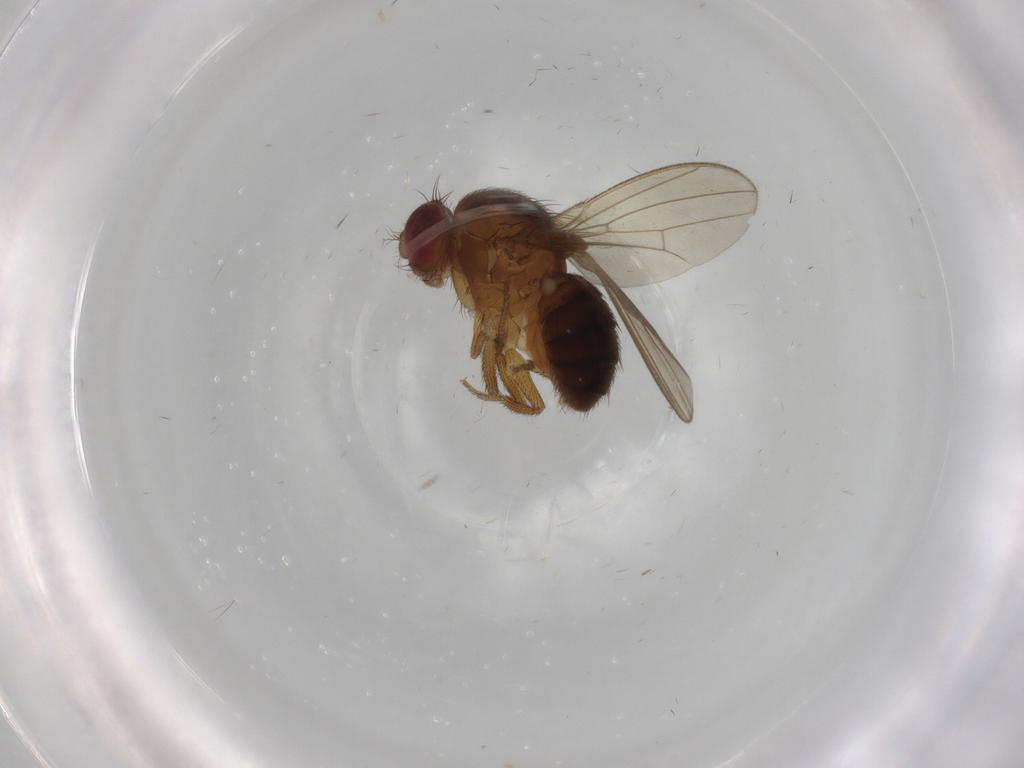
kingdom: Animalia
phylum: Arthropoda
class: Insecta
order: Diptera
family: Drosophilidae
